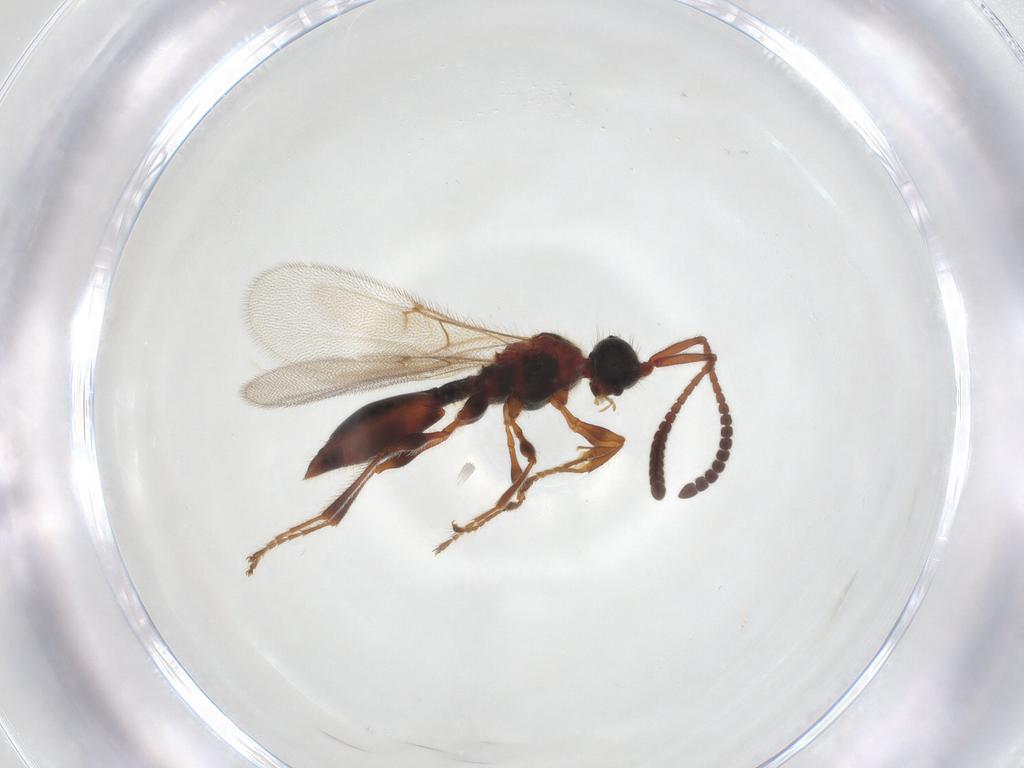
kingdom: Animalia
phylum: Arthropoda
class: Insecta
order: Hymenoptera
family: Diapriidae
